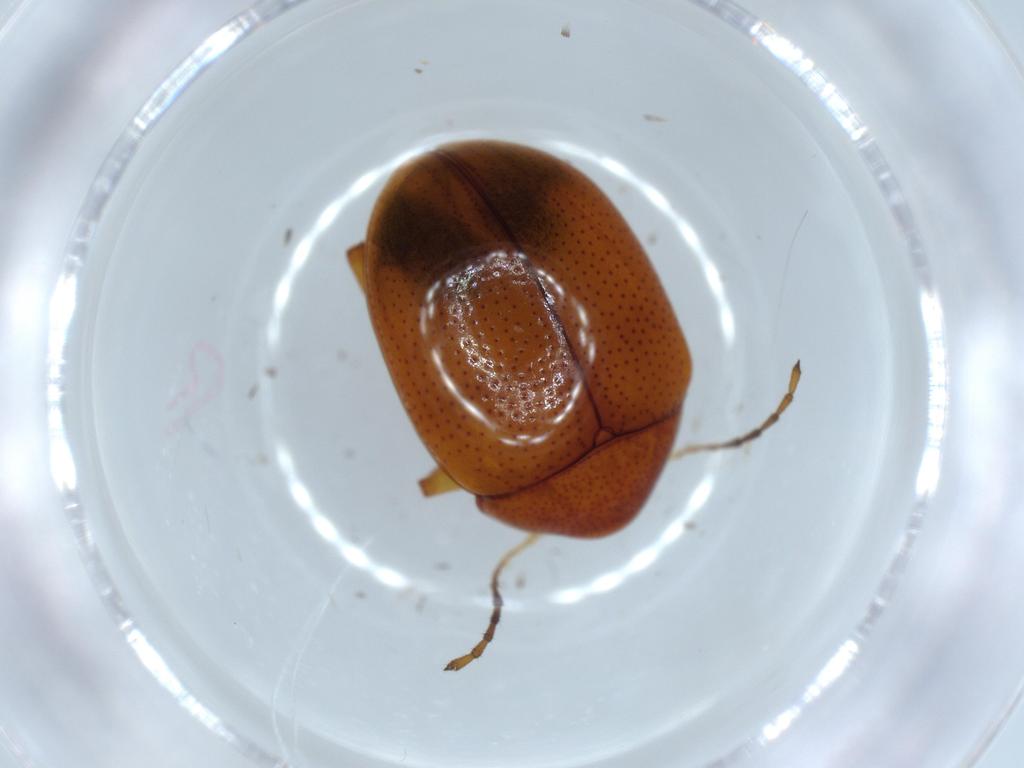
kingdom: Animalia
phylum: Arthropoda
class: Insecta
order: Coleoptera
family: Chrysomelidae
